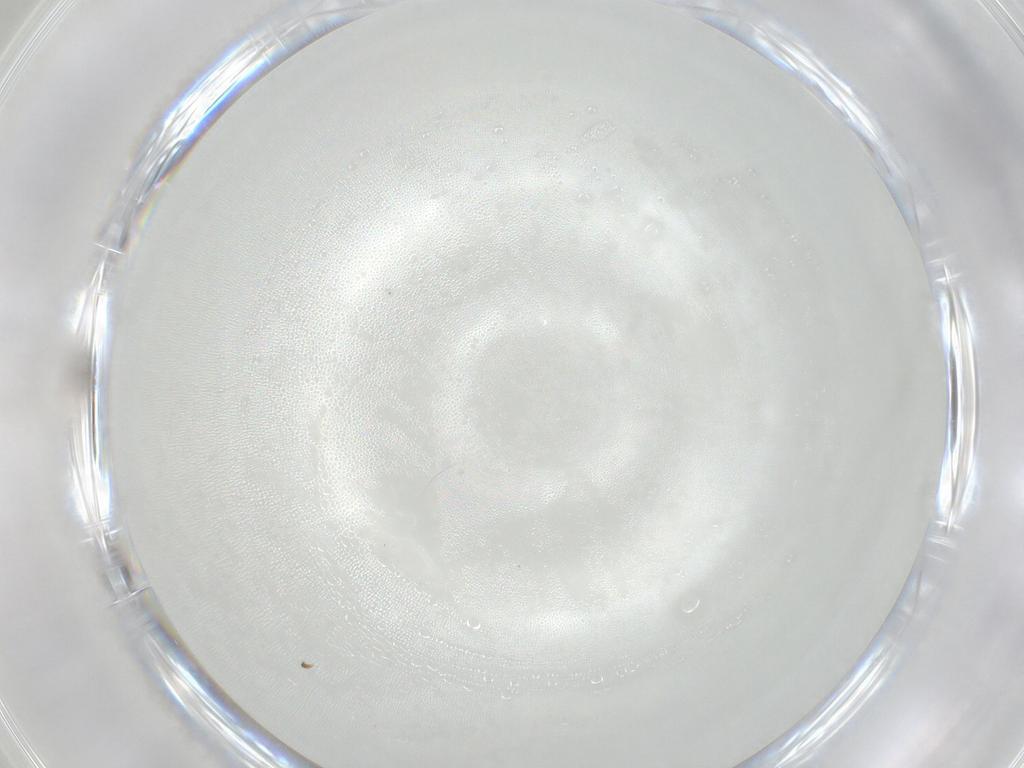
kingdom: Animalia
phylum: Arthropoda
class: Insecta
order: Hymenoptera
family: Mymaridae
